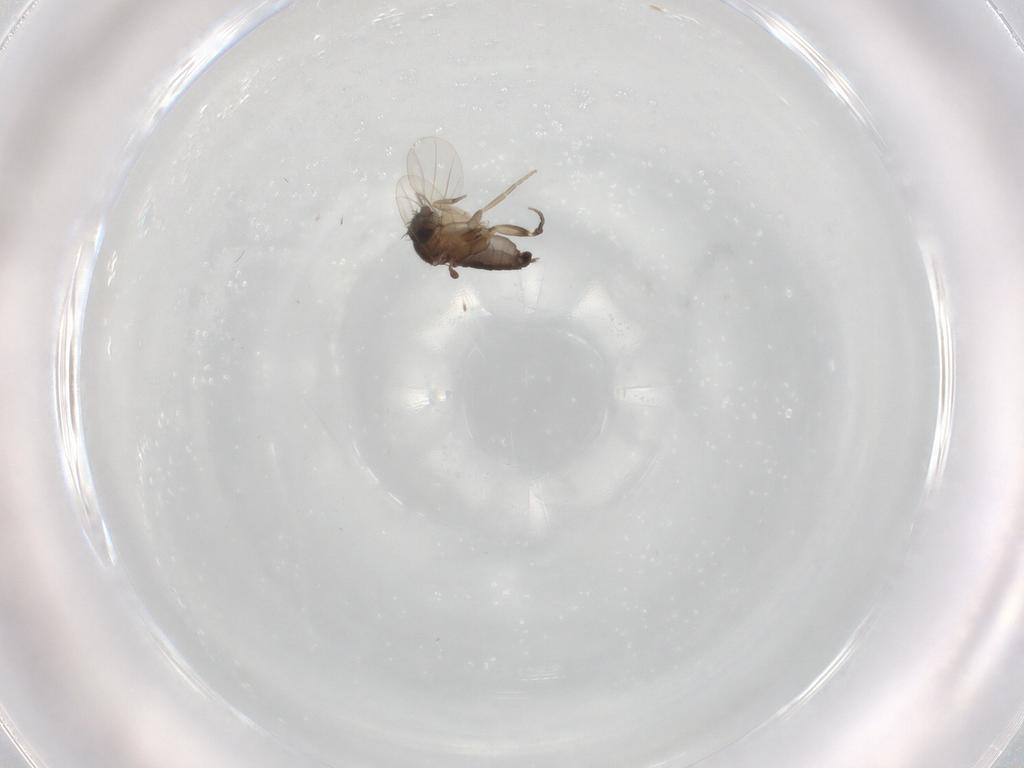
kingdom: Animalia
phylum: Arthropoda
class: Insecta
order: Diptera
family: Phoridae
